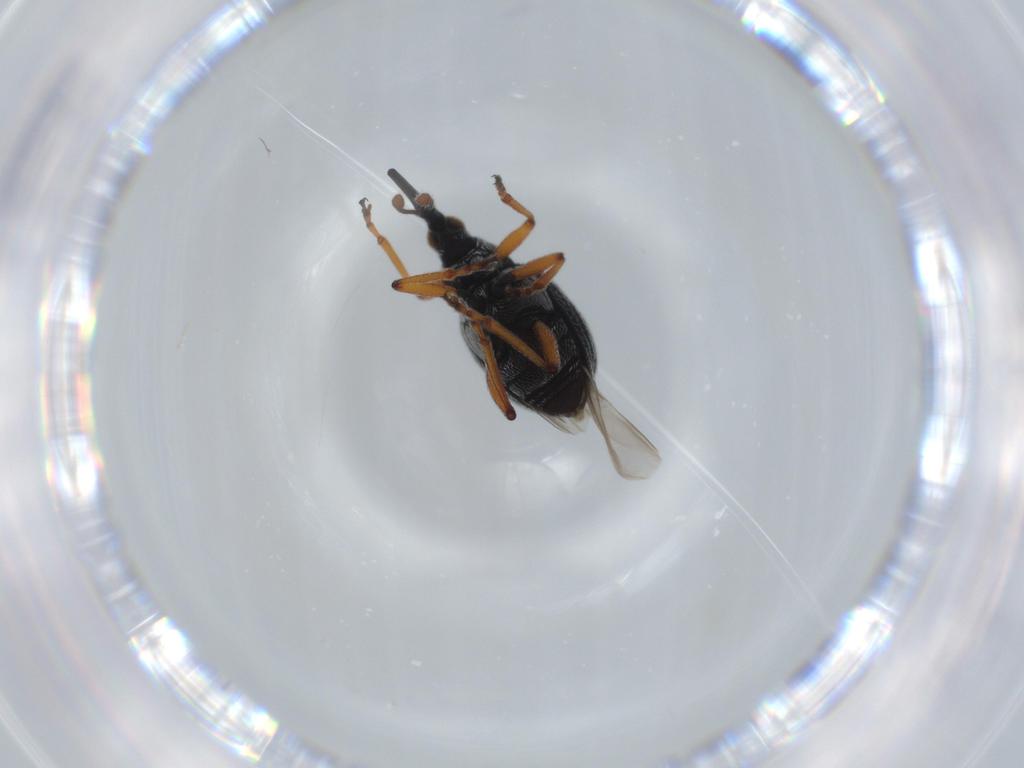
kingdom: Animalia
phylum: Arthropoda
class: Insecta
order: Coleoptera
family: Brentidae
